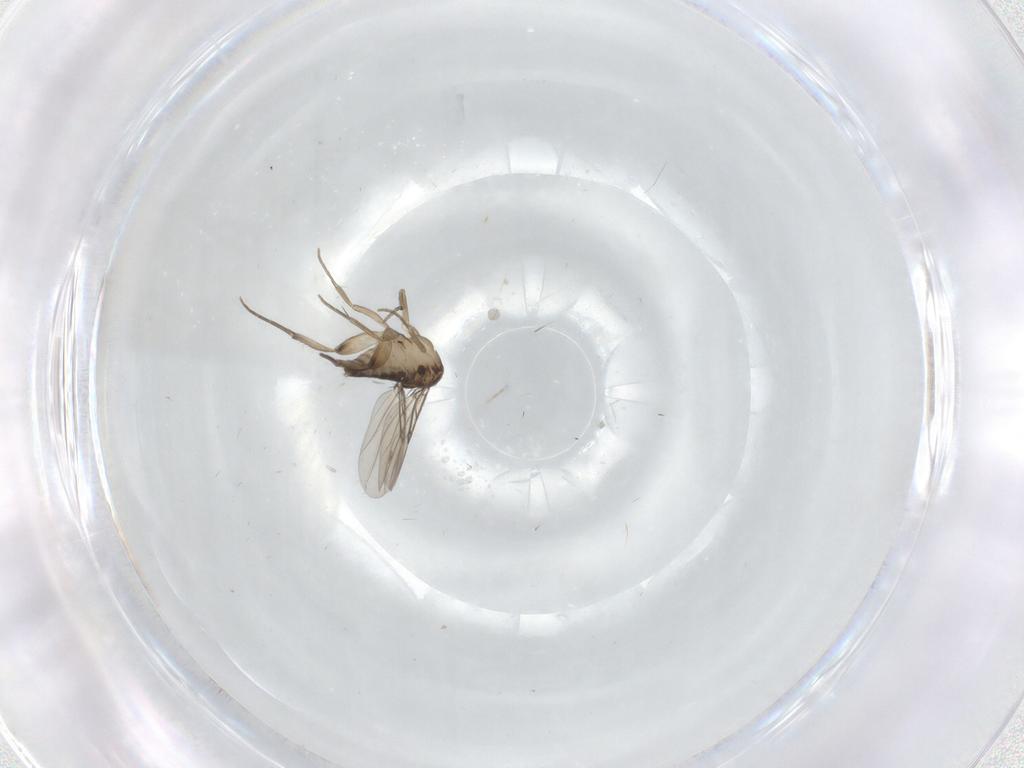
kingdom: Animalia
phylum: Arthropoda
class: Insecta
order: Diptera
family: Phoridae
